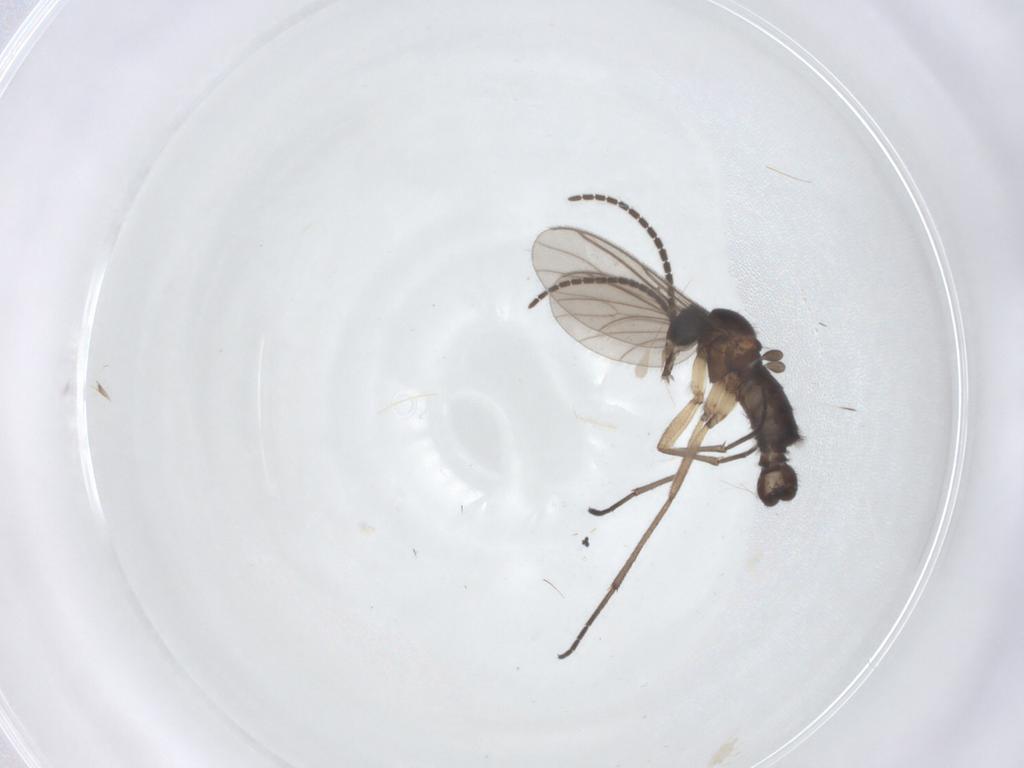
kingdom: Animalia
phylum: Arthropoda
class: Insecta
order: Diptera
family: Sciaridae
